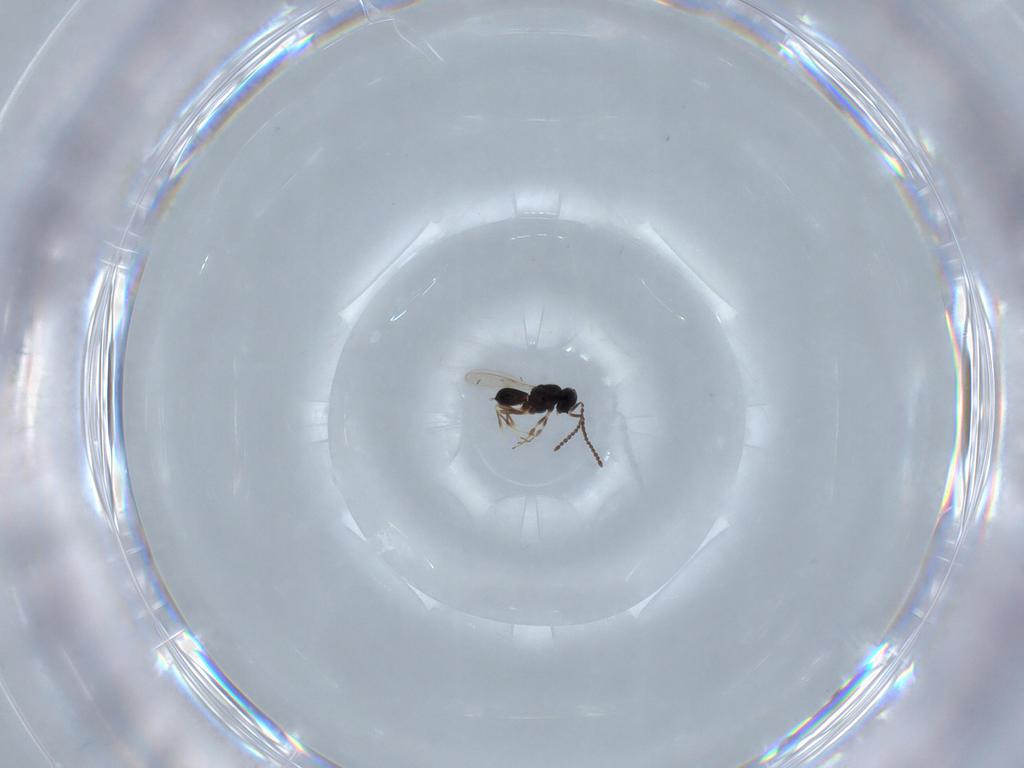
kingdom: Animalia
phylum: Arthropoda
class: Insecta
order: Hymenoptera
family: Scelionidae
